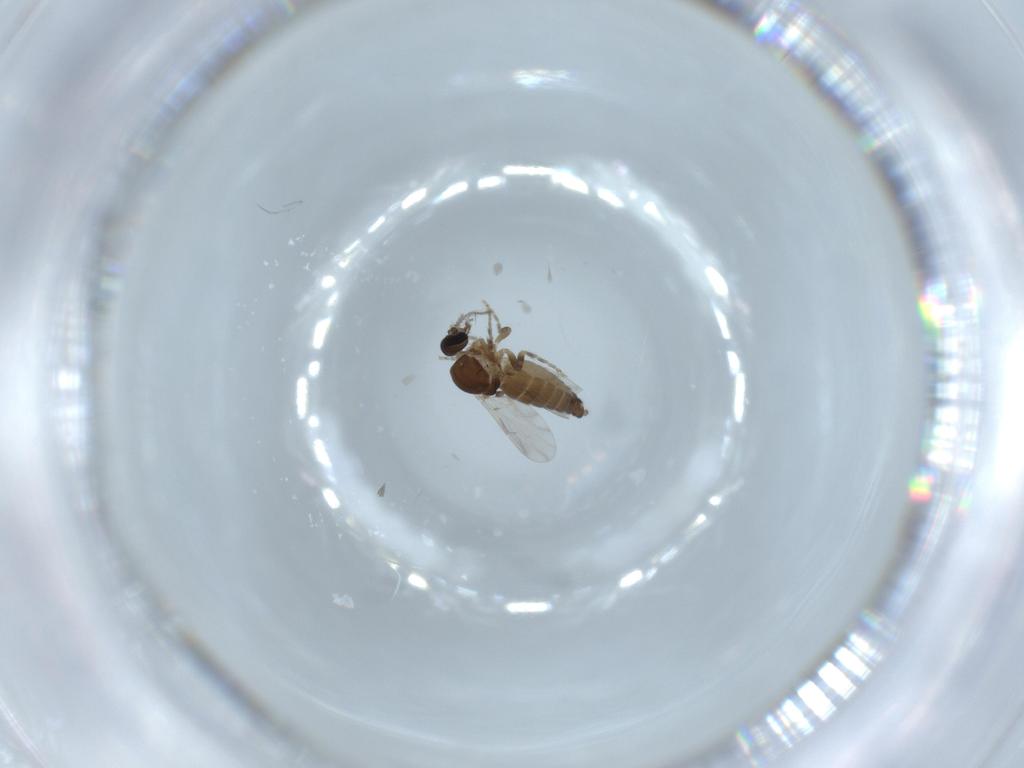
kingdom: Animalia
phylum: Arthropoda
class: Insecta
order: Diptera
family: Ceratopogonidae
